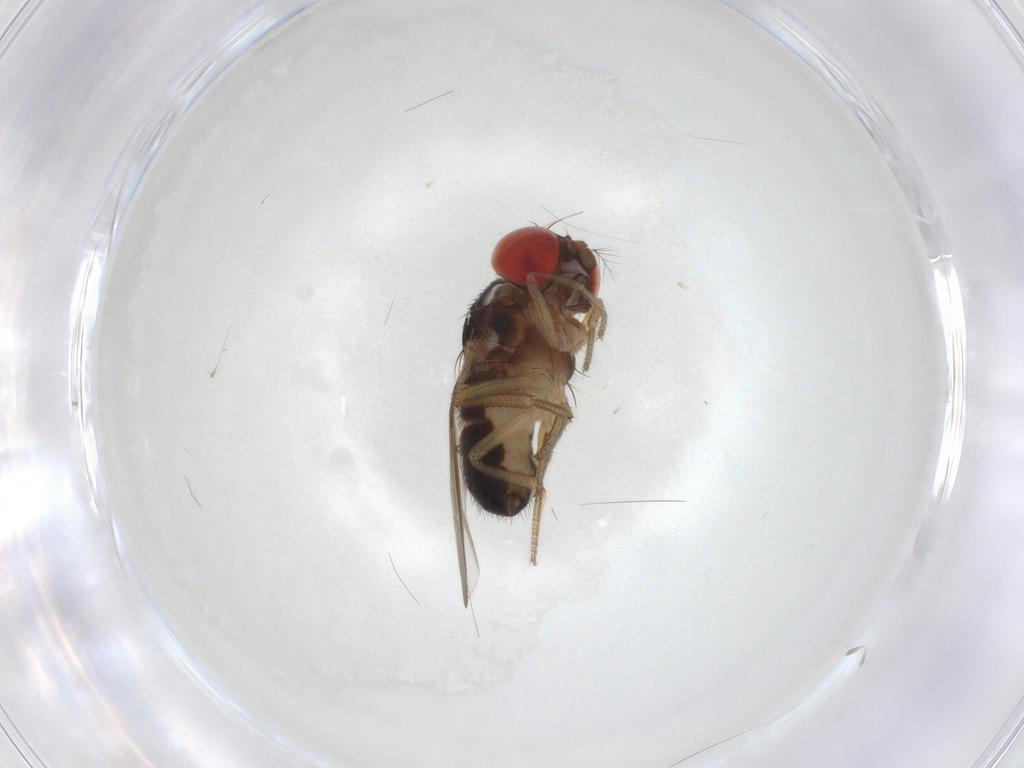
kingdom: Animalia
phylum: Arthropoda
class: Insecta
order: Diptera
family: Drosophilidae
